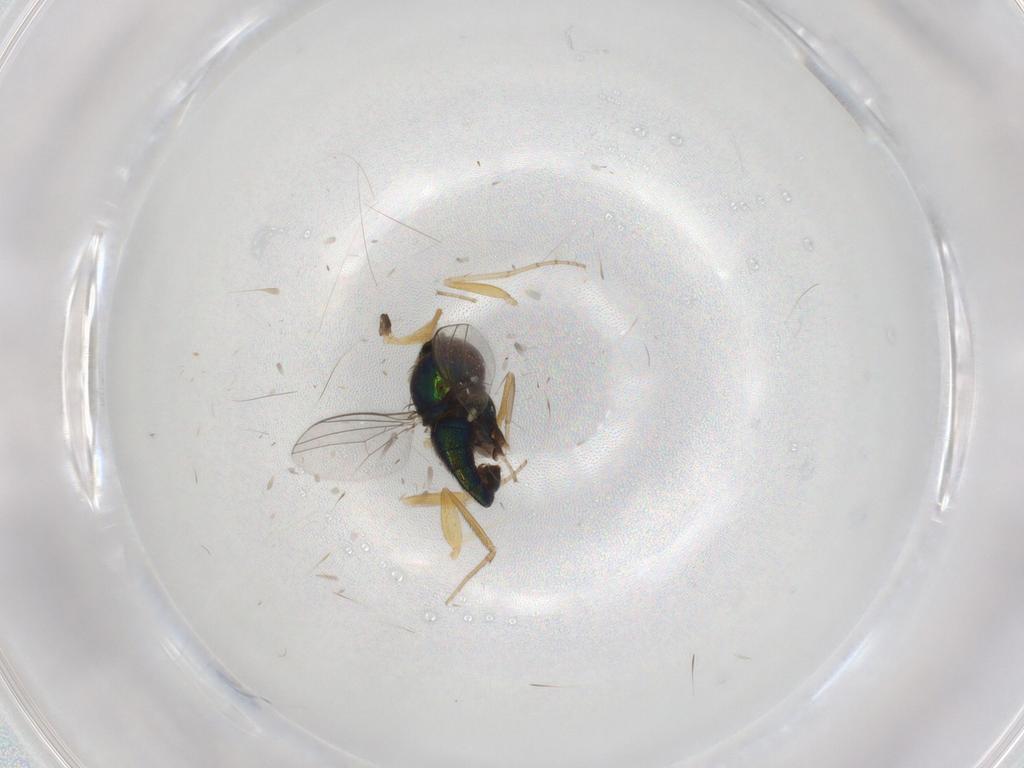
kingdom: Animalia
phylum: Arthropoda
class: Insecta
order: Diptera
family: Dolichopodidae
